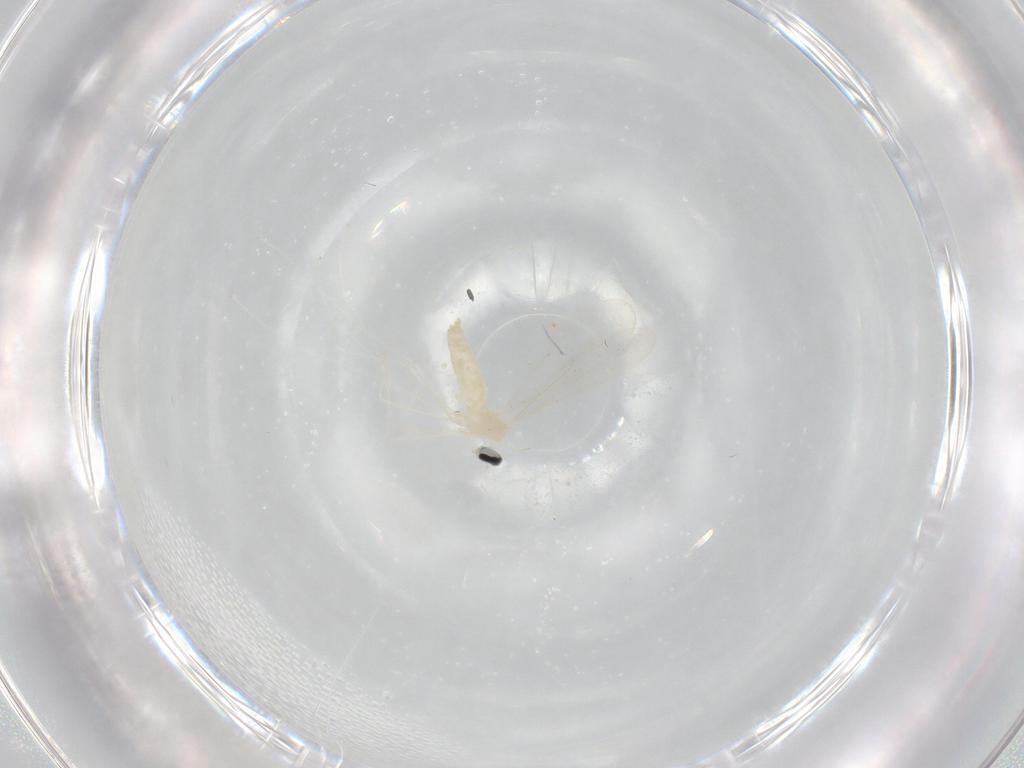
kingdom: Animalia
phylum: Arthropoda
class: Insecta
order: Diptera
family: Cecidomyiidae
